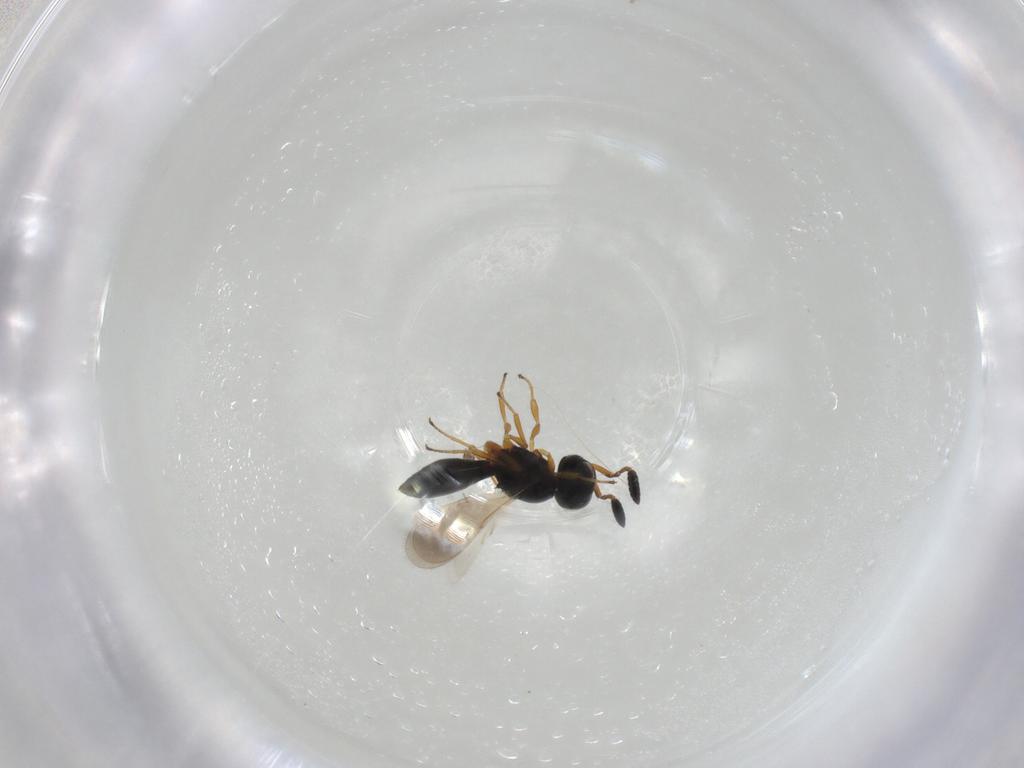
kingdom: Animalia
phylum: Arthropoda
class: Insecta
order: Hymenoptera
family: Scelionidae
